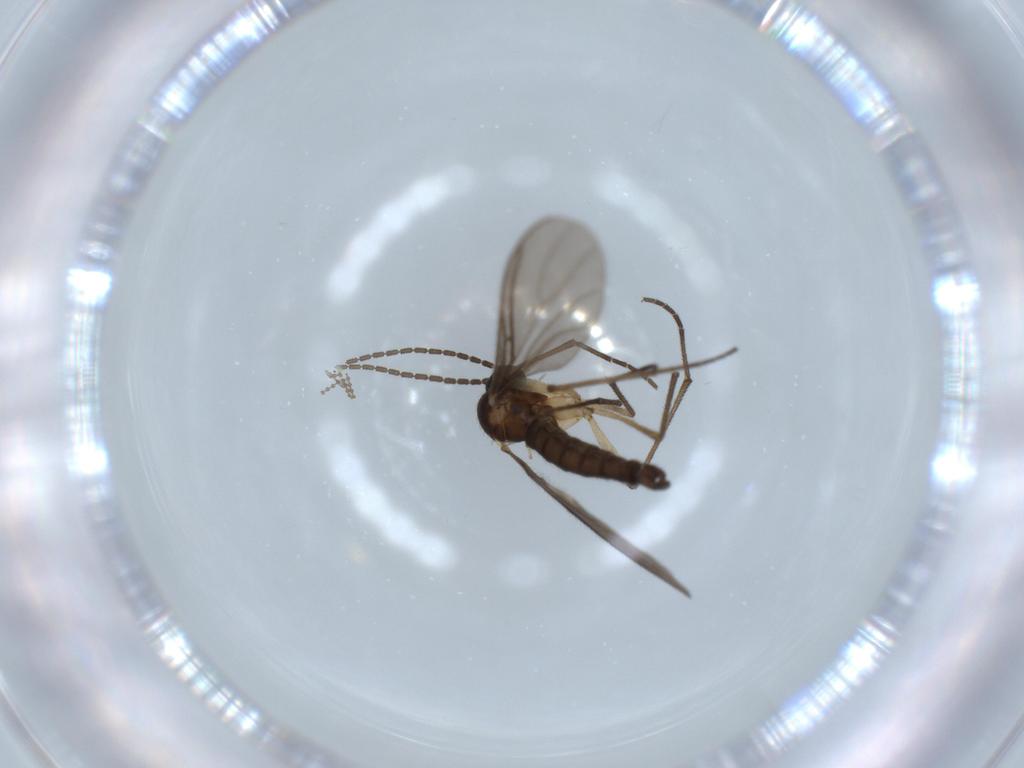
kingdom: Animalia
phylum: Arthropoda
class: Insecta
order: Diptera
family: Cecidomyiidae
